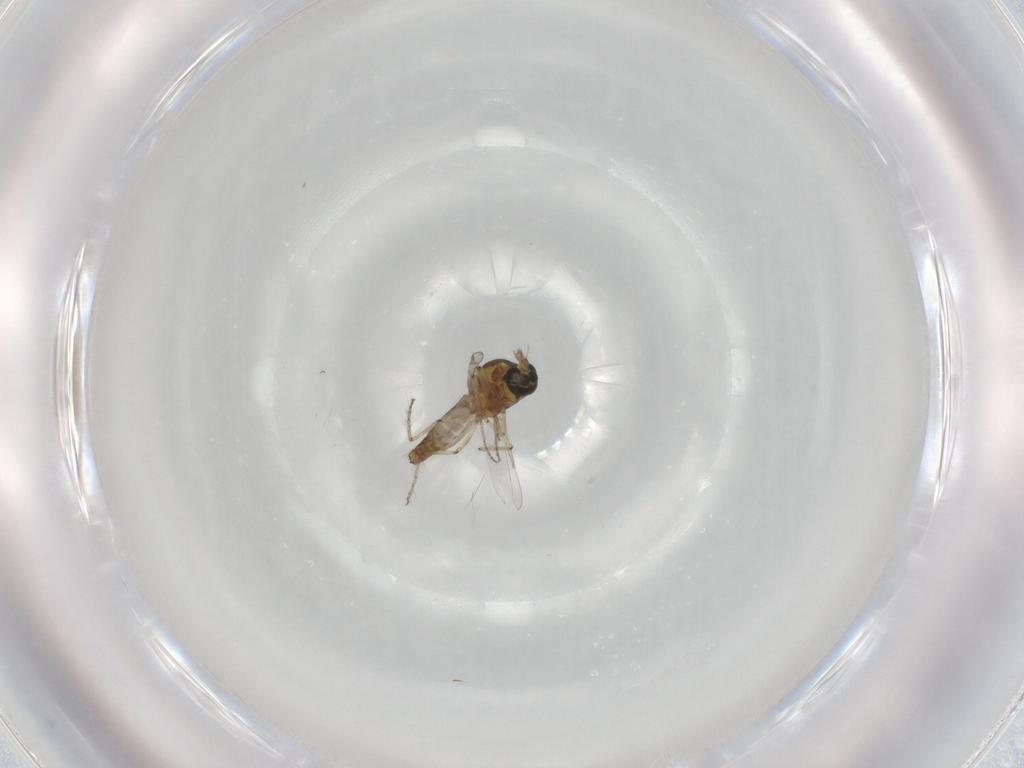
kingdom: Animalia
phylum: Arthropoda
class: Insecta
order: Diptera
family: Ceratopogonidae
